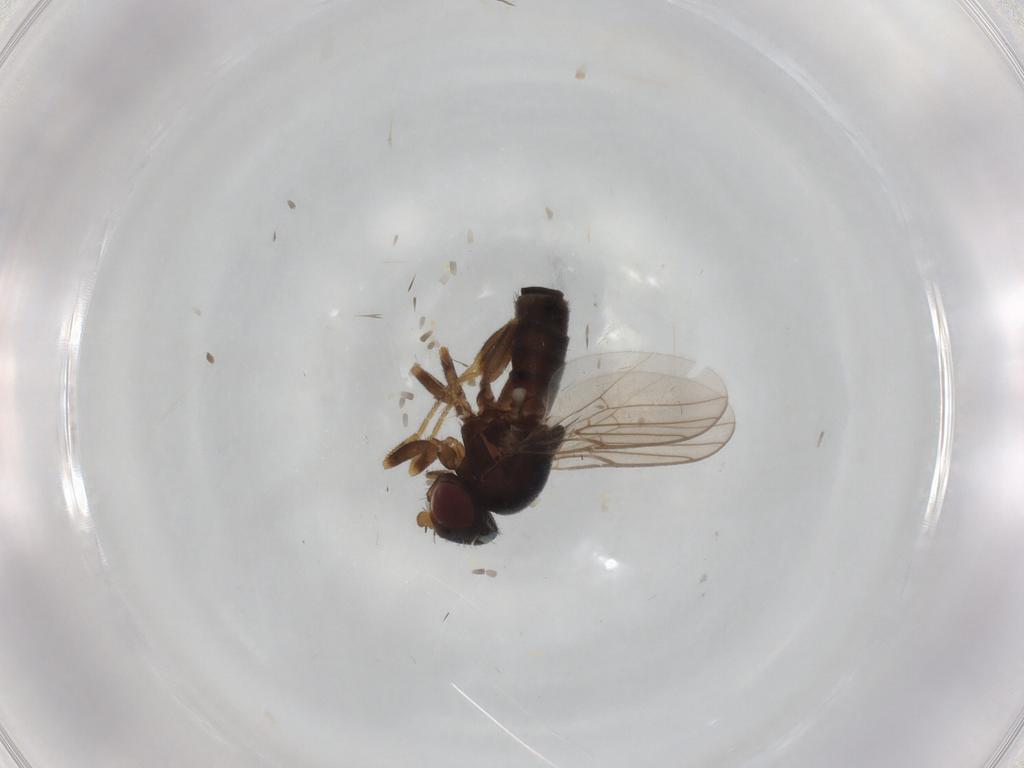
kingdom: Animalia
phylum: Arthropoda
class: Insecta
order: Diptera
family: Chloropidae
